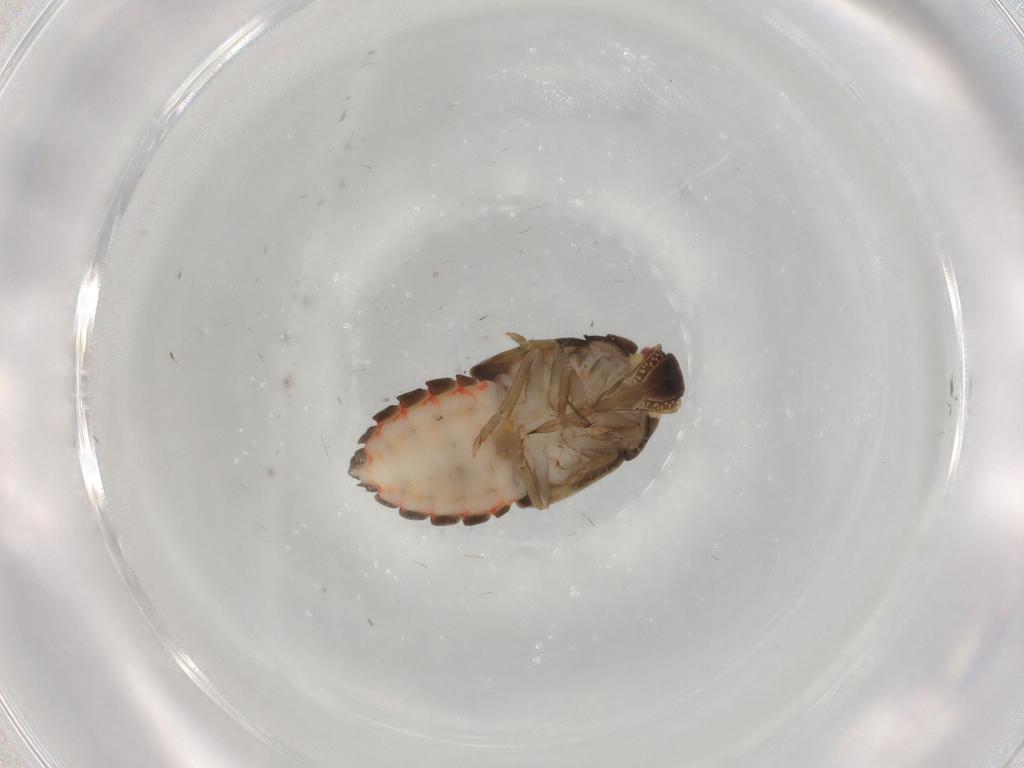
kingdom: Animalia
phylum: Arthropoda
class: Insecta
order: Hemiptera
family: Derbidae
